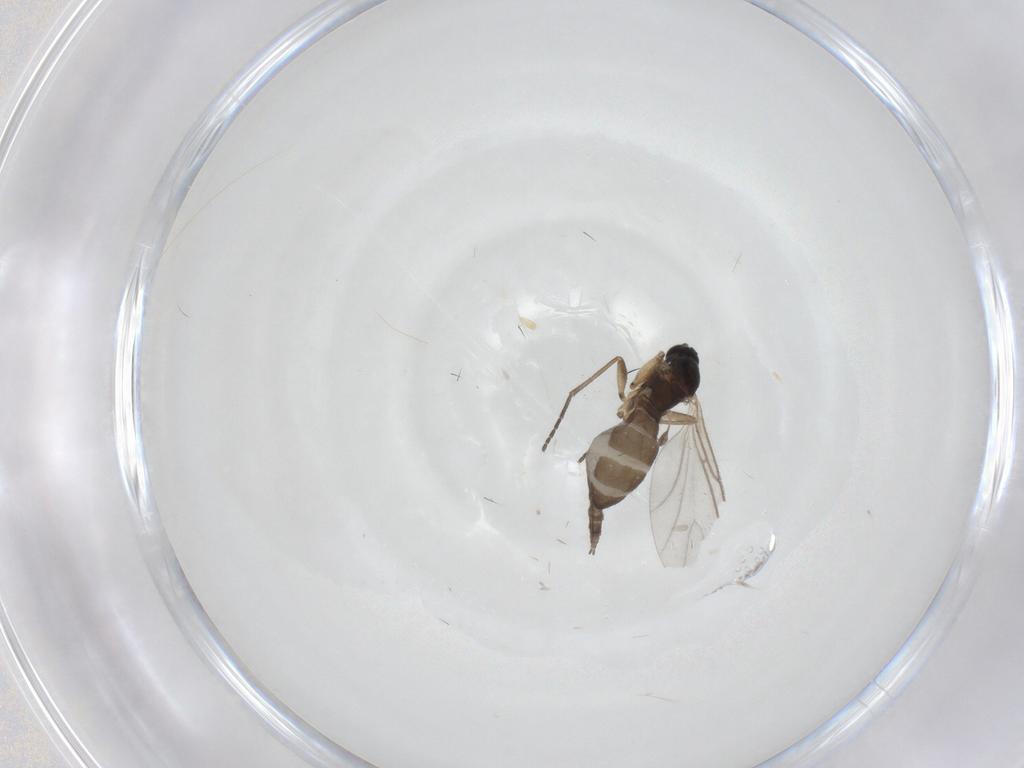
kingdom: Animalia
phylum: Arthropoda
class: Insecta
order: Diptera
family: Sciaridae
